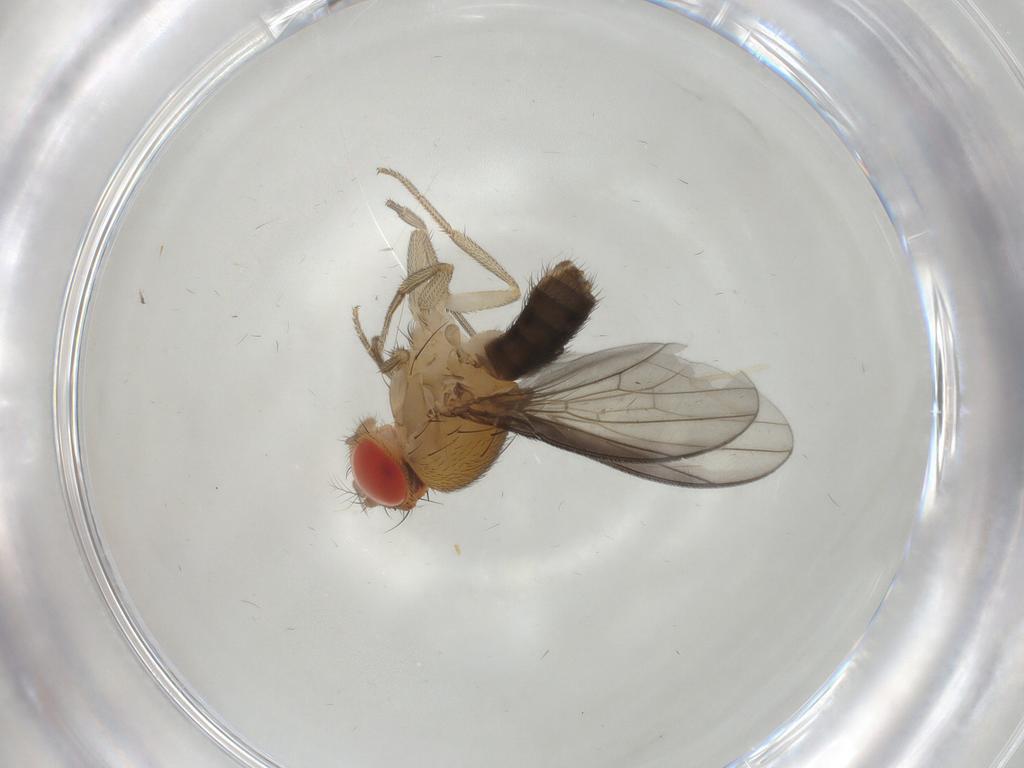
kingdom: Animalia
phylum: Arthropoda
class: Insecta
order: Diptera
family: Drosophilidae
